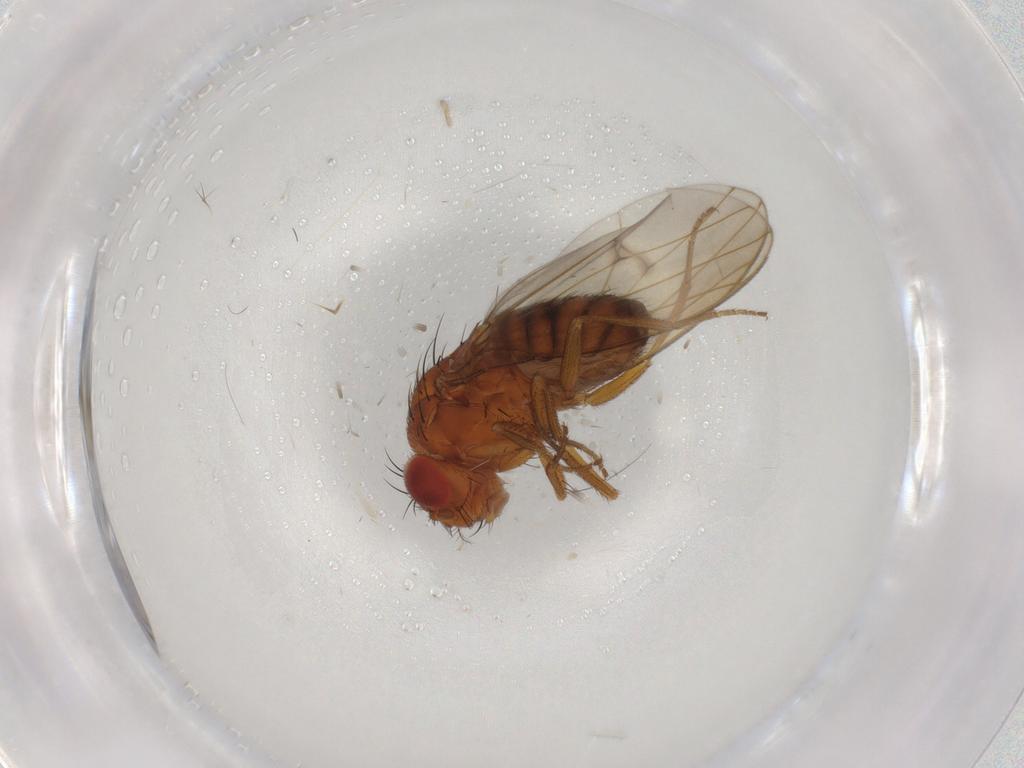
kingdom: Animalia
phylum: Arthropoda
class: Insecta
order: Diptera
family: Drosophilidae
